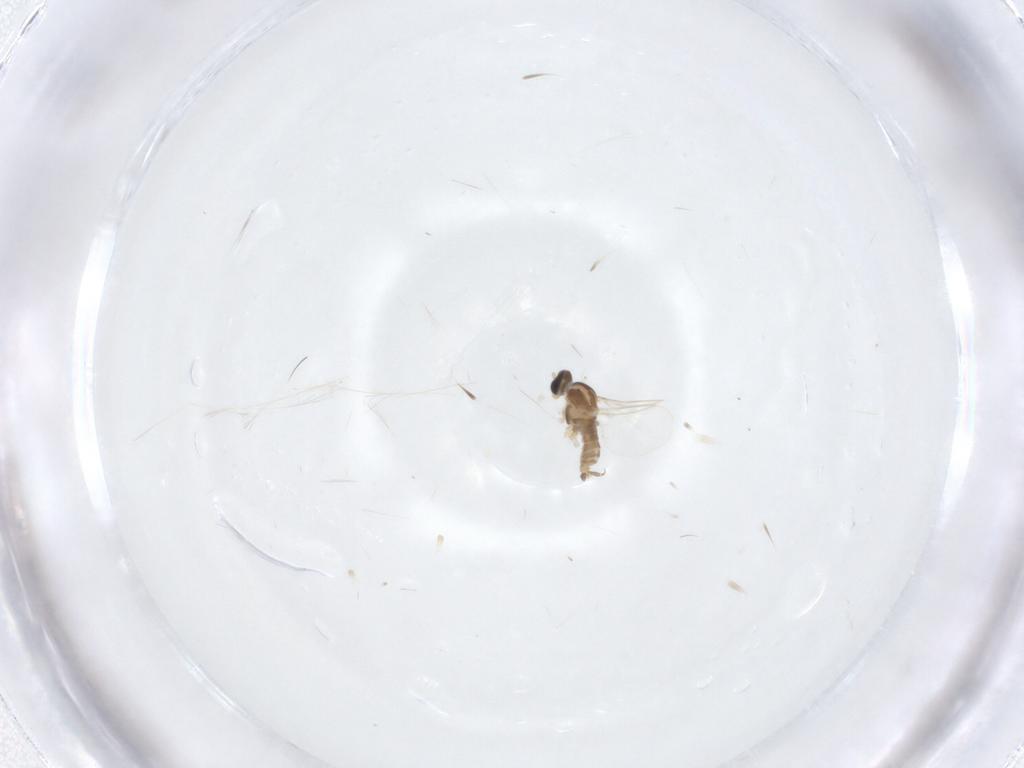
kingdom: Animalia
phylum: Arthropoda
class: Insecta
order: Diptera
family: Cecidomyiidae
